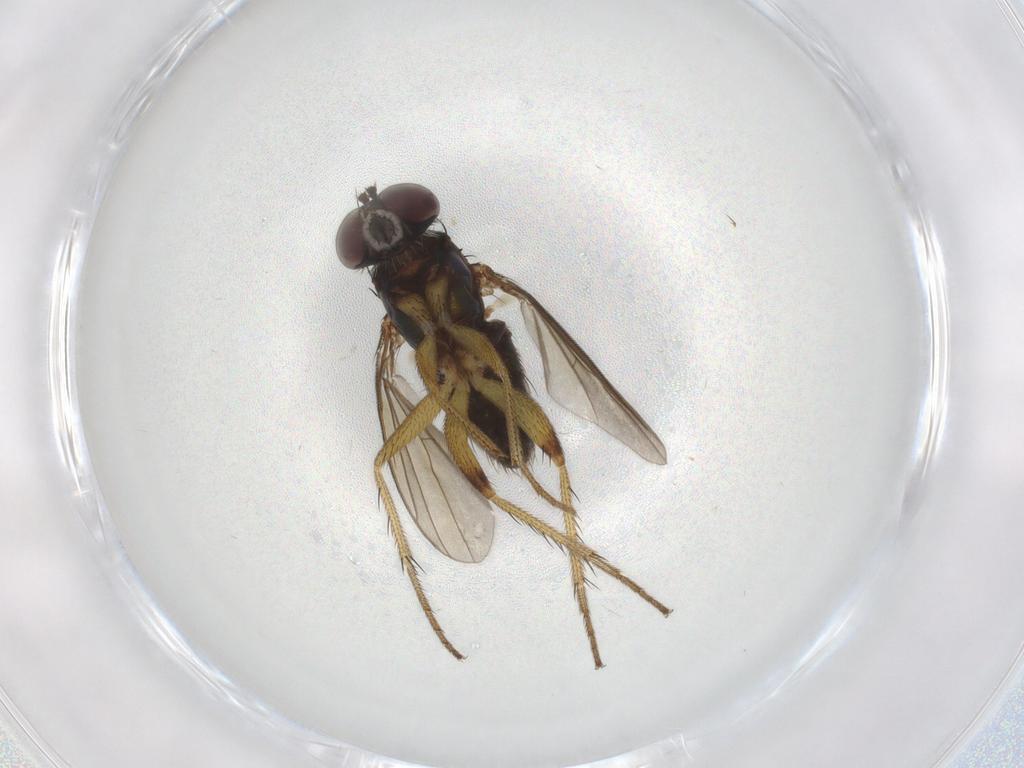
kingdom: Animalia
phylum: Arthropoda
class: Insecta
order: Diptera
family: Dolichopodidae
